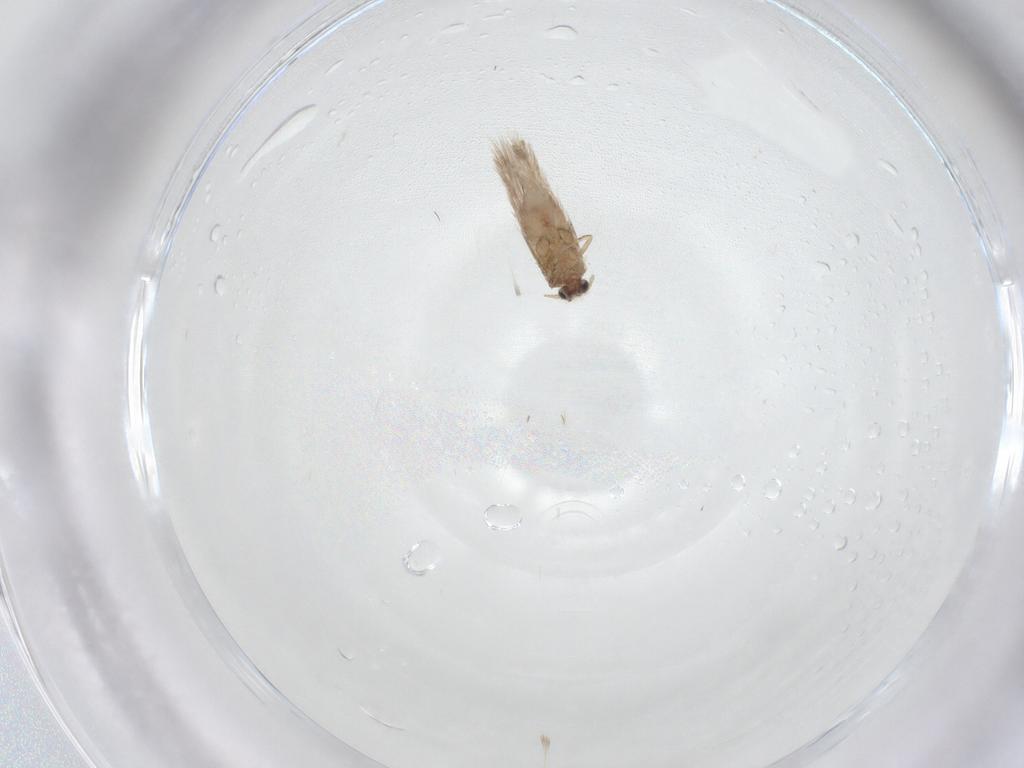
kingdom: Animalia
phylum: Arthropoda
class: Insecta
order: Lepidoptera
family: Nepticulidae
